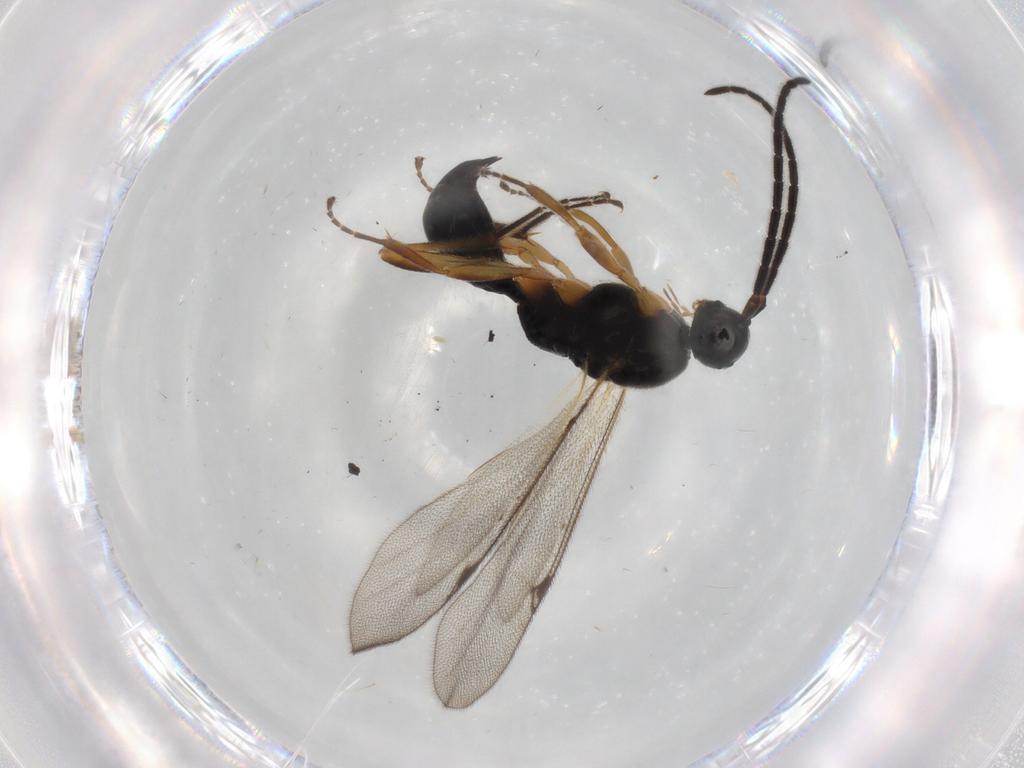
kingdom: Animalia
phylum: Arthropoda
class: Insecta
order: Hymenoptera
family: Proctotrupidae
